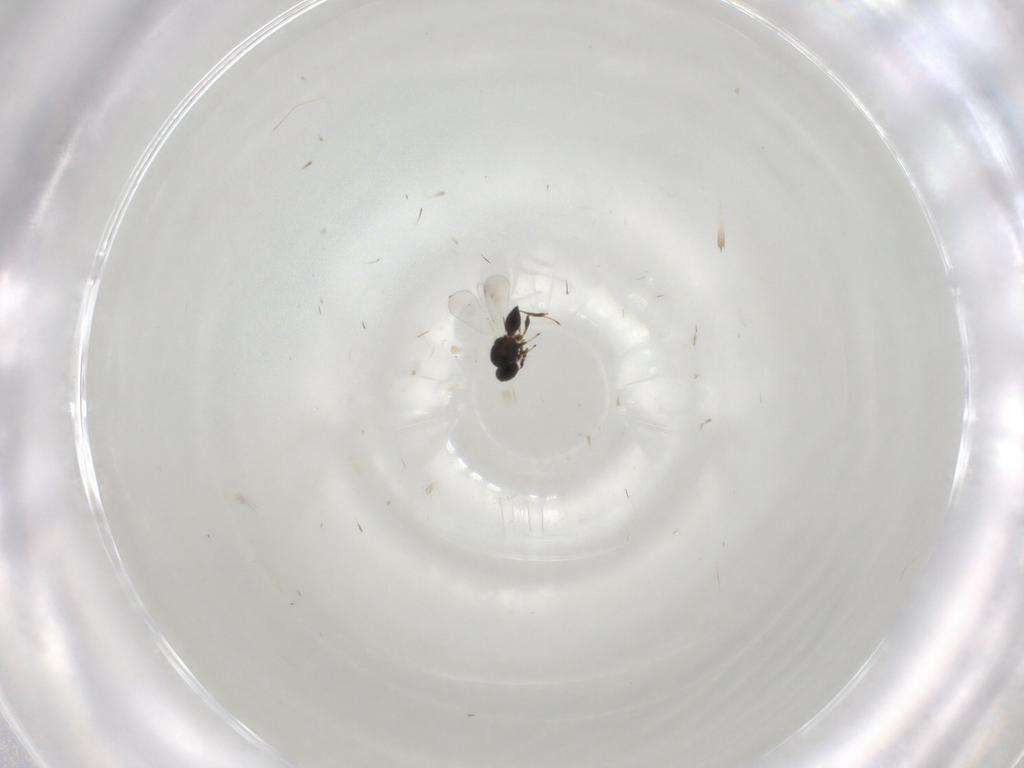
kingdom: Animalia
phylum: Arthropoda
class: Insecta
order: Hymenoptera
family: Platygastridae
